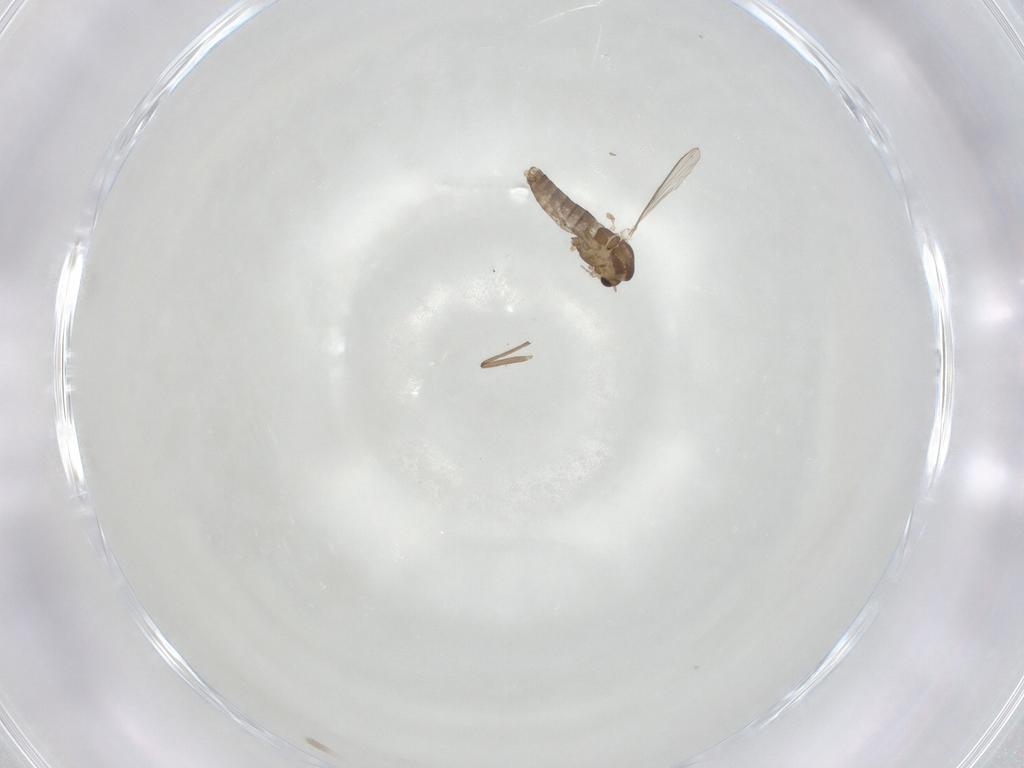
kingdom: Animalia
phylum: Arthropoda
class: Insecta
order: Diptera
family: Chironomidae
